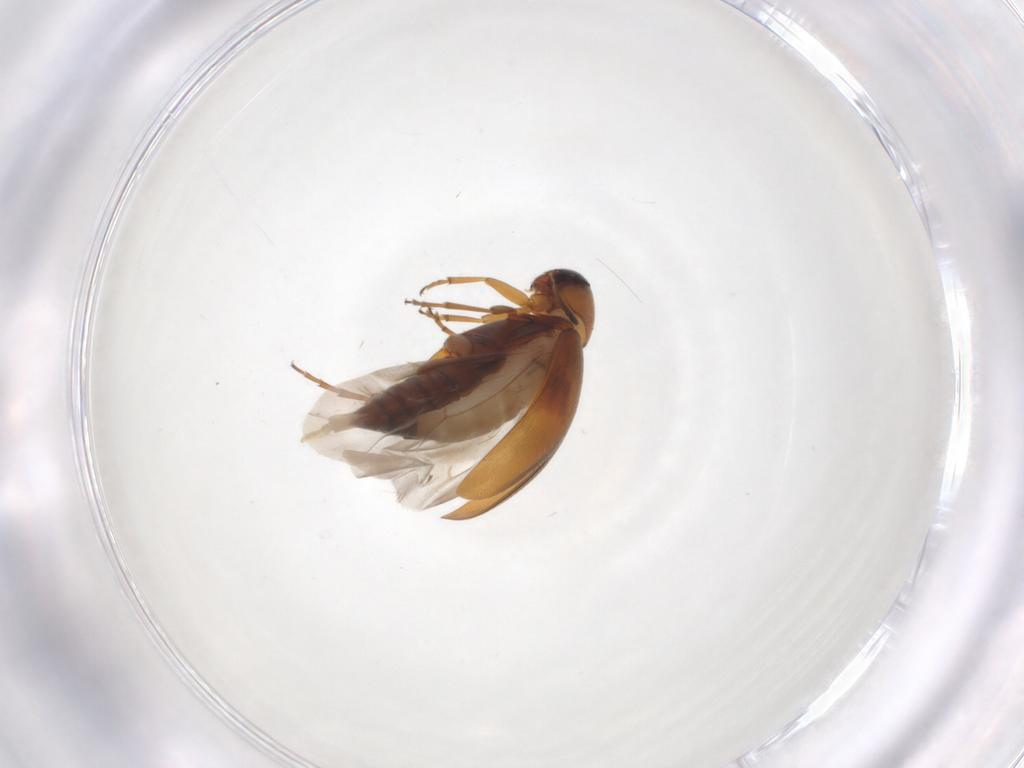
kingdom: Animalia
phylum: Arthropoda
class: Insecta
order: Coleoptera
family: Scraptiidae
